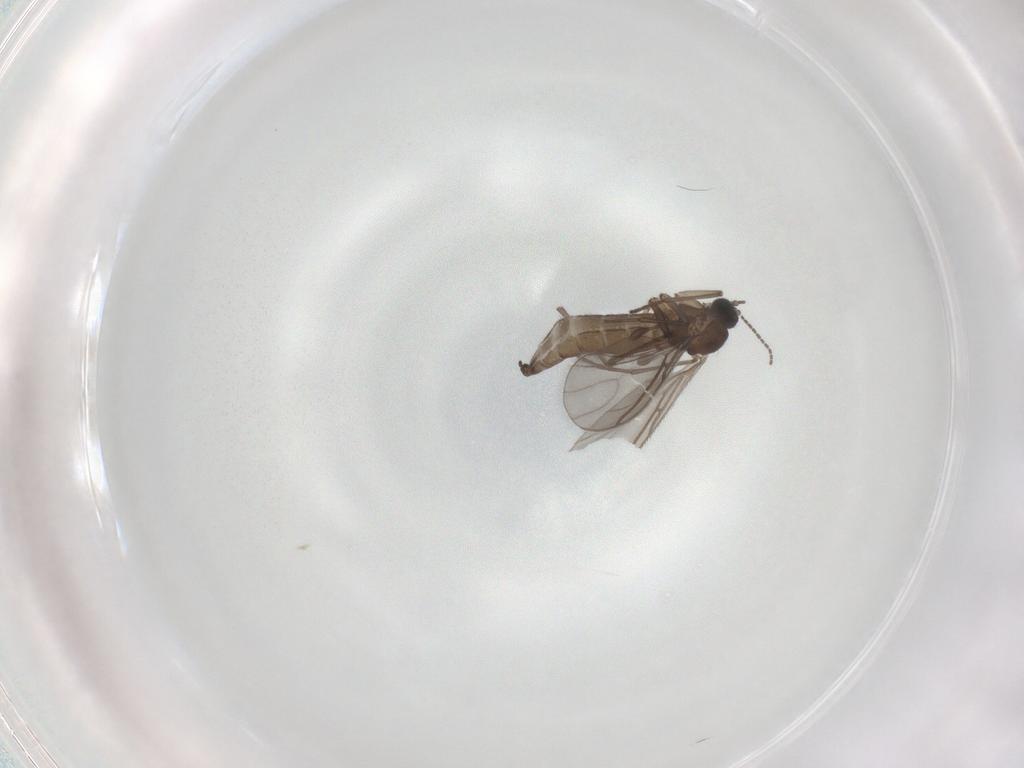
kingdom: Animalia
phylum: Arthropoda
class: Insecta
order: Diptera
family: Sciaridae
